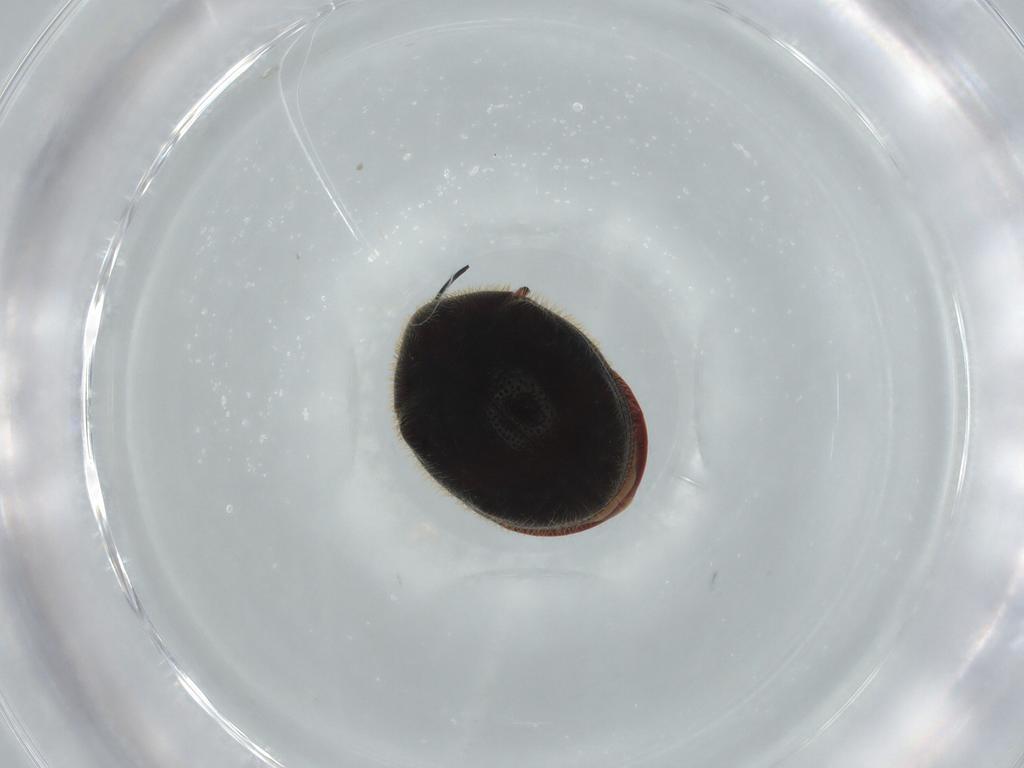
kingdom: Animalia
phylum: Arthropoda
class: Insecta
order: Coleoptera
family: Anobiidae
